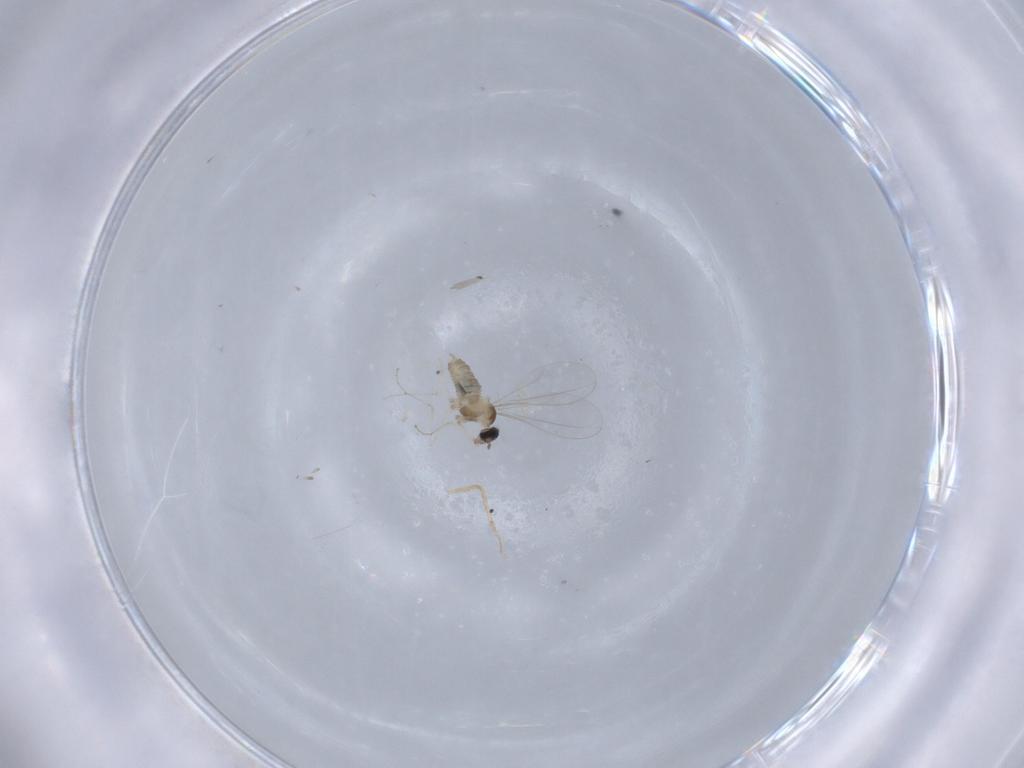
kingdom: Animalia
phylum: Arthropoda
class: Insecta
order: Diptera
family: Cecidomyiidae
